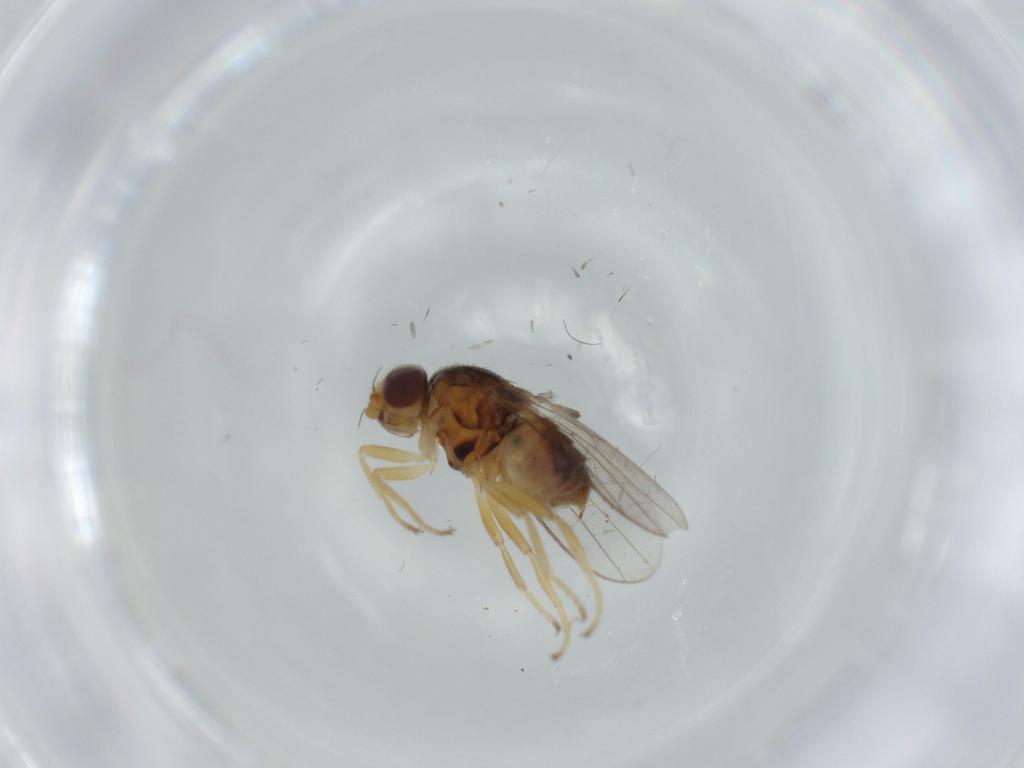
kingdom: Animalia
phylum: Arthropoda
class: Insecta
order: Diptera
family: Chloropidae
